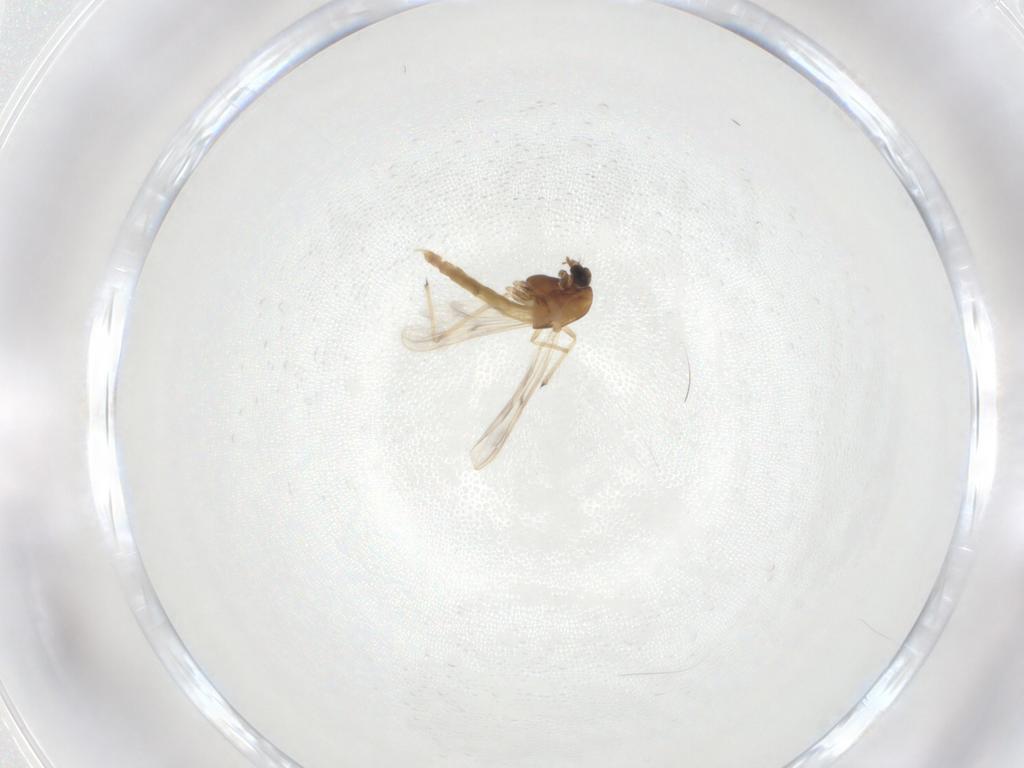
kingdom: Animalia
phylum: Arthropoda
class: Insecta
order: Diptera
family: Chironomidae
